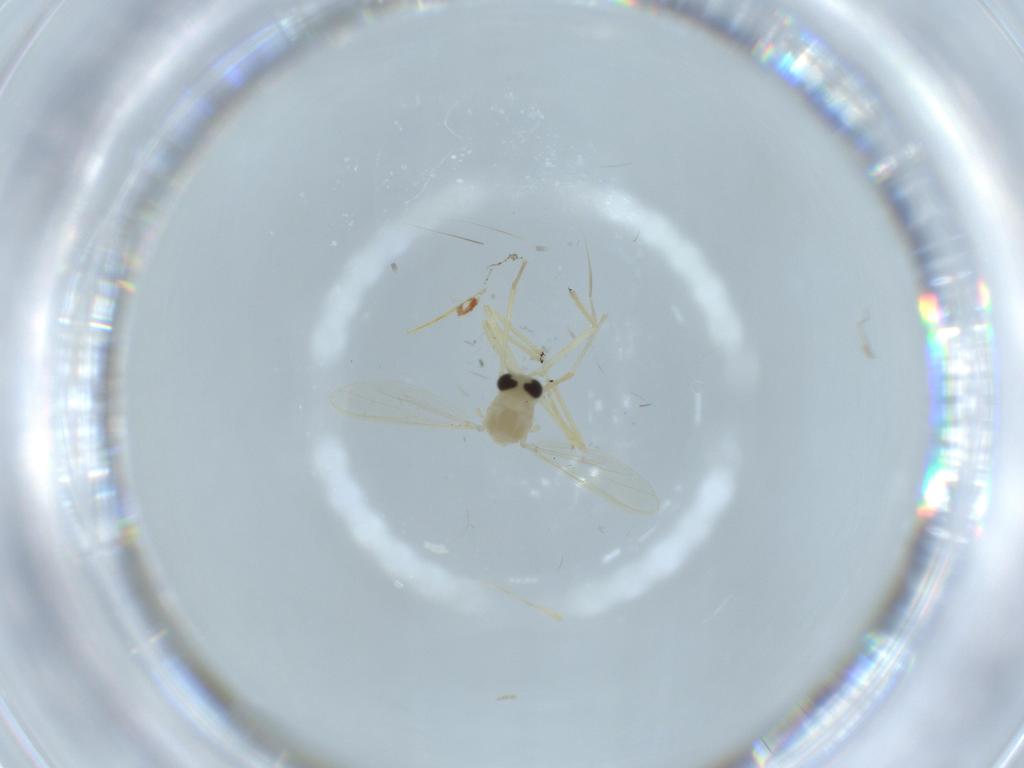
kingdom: Animalia
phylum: Arthropoda
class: Insecta
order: Diptera
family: Chironomidae
